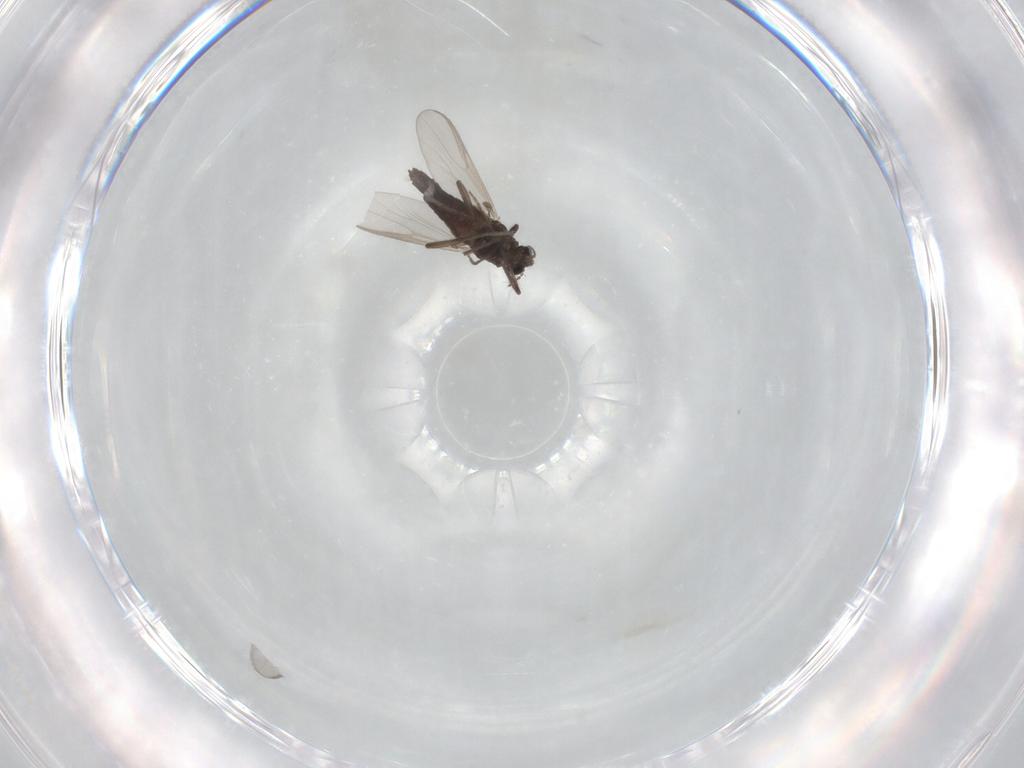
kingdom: Animalia
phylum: Arthropoda
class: Insecta
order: Diptera
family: Chironomidae
